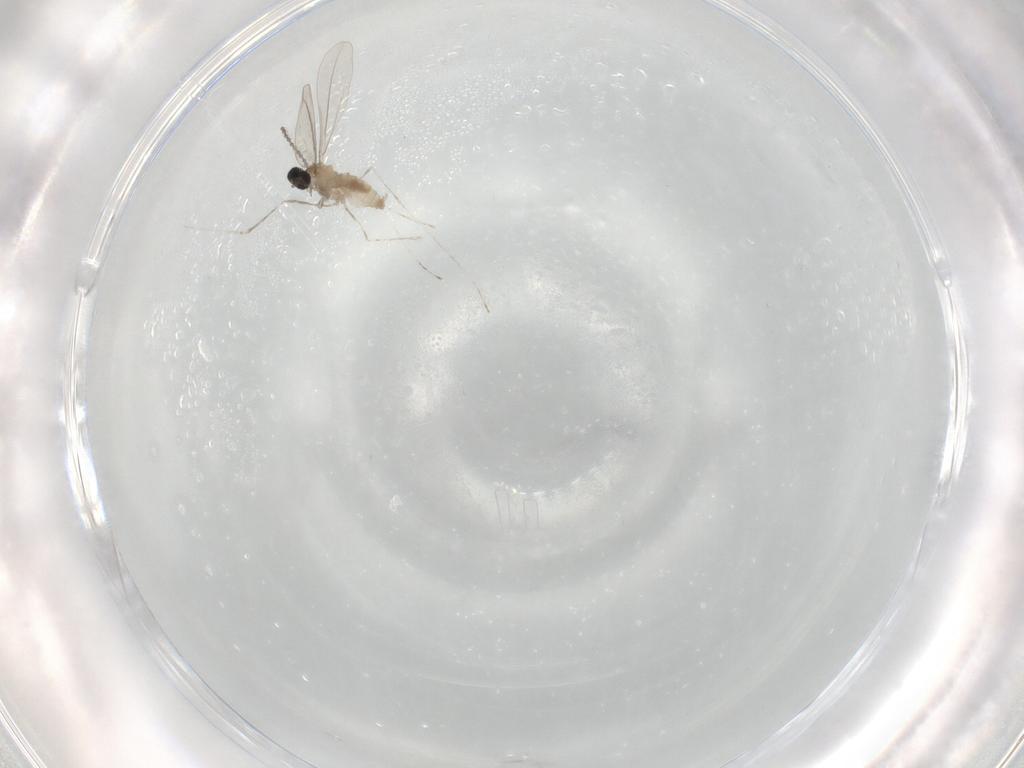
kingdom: Animalia
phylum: Arthropoda
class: Insecta
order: Diptera
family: Cecidomyiidae
